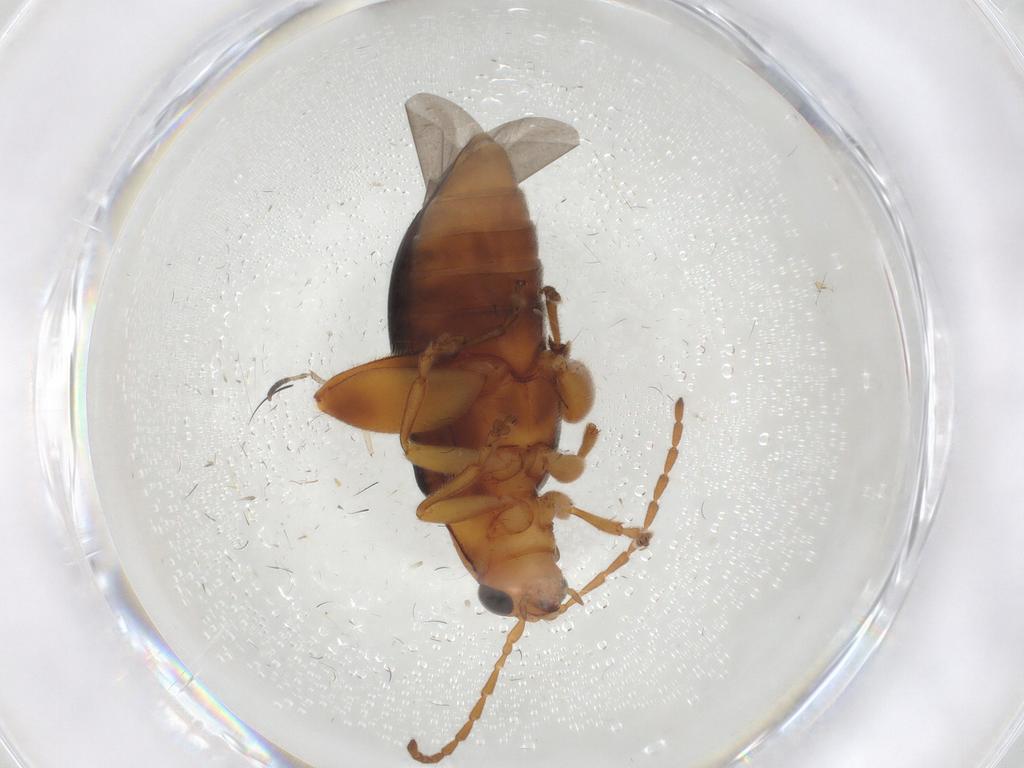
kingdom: Animalia
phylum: Arthropoda
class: Insecta
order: Coleoptera
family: Chrysomelidae
